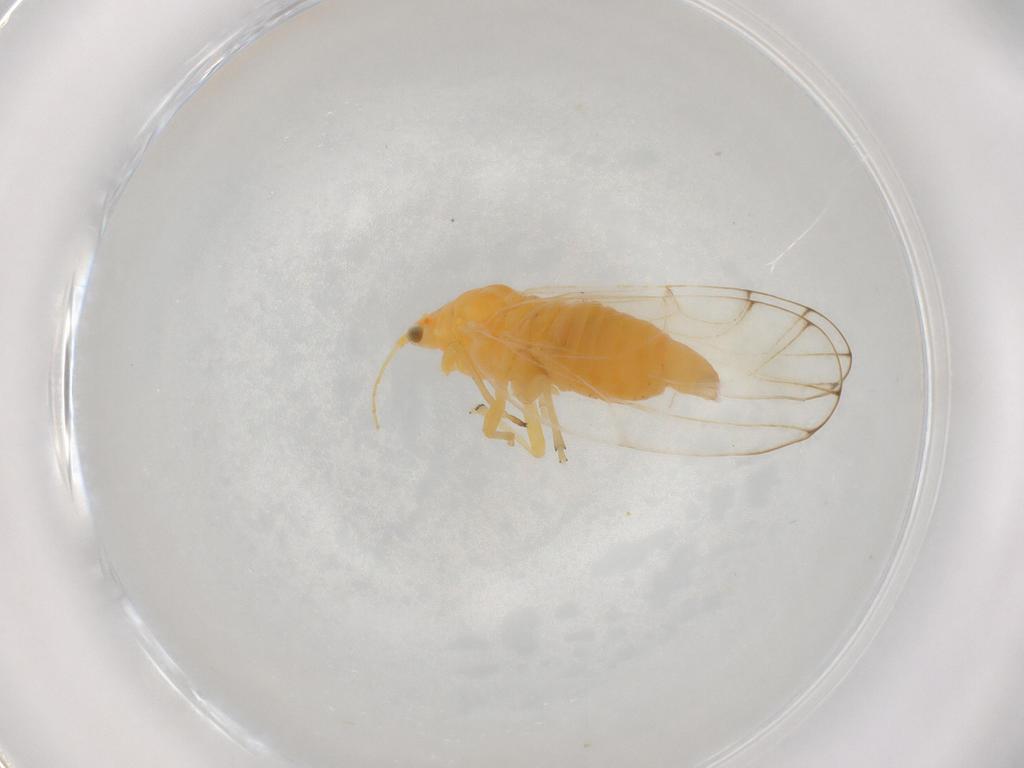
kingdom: Animalia
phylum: Arthropoda
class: Insecta
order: Hemiptera
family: Aphalaridae
